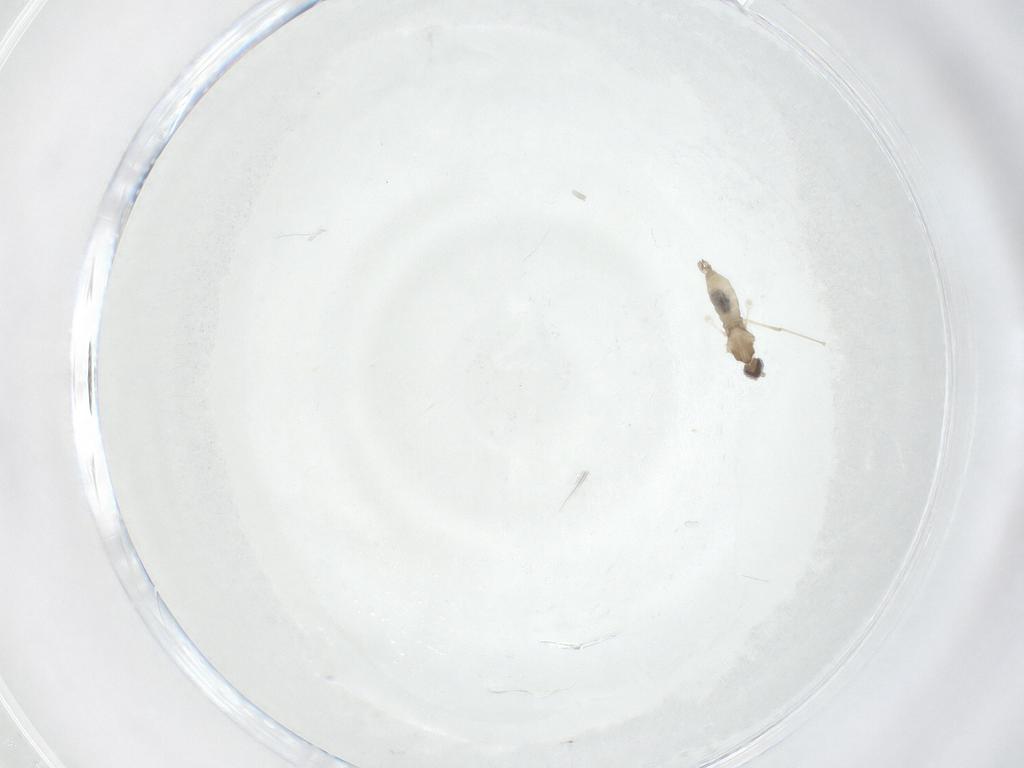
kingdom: Animalia
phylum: Arthropoda
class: Insecta
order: Diptera
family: Cecidomyiidae
